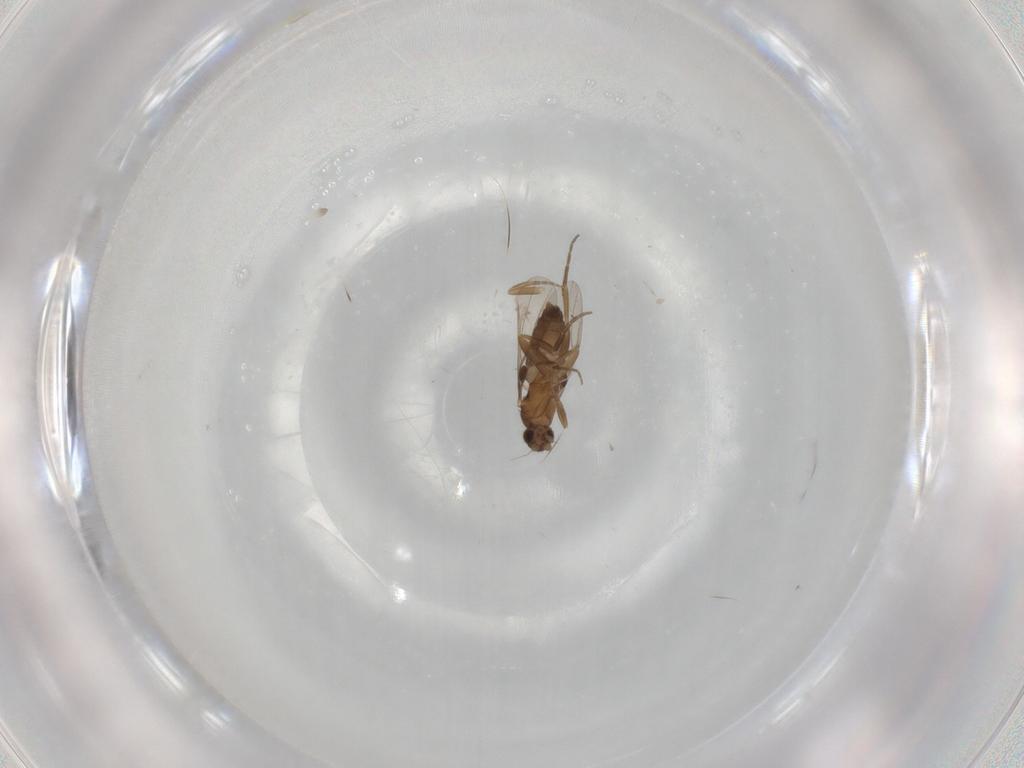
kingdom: Animalia
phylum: Arthropoda
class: Insecta
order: Diptera
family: Phoridae
